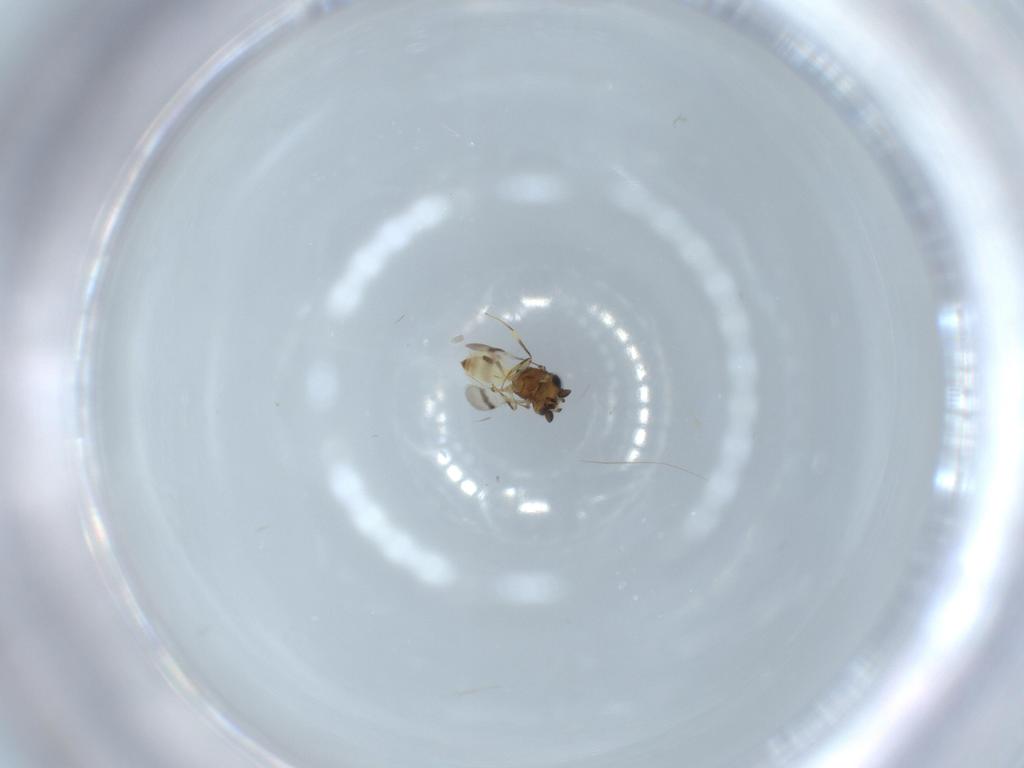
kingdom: Animalia
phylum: Arthropoda
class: Arachnida
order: Araneae
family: Pholcidae
